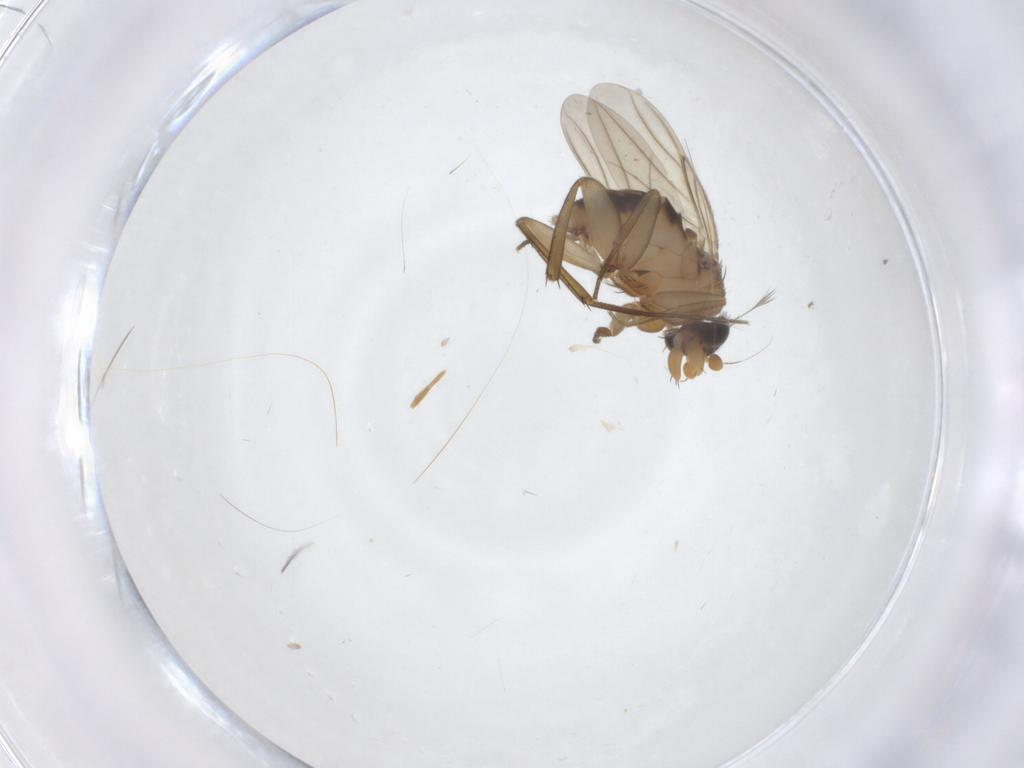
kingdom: Animalia
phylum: Arthropoda
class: Insecta
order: Diptera
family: Phoridae
